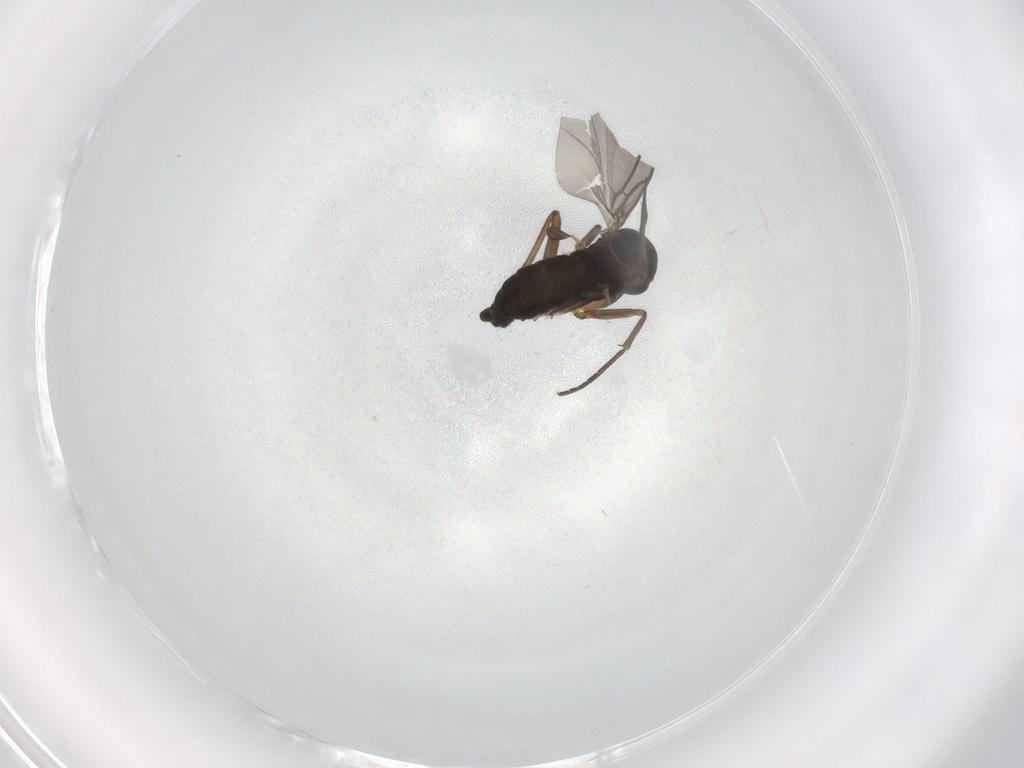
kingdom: Animalia
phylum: Arthropoda
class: Insecta
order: Diptera
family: Sciaridae
